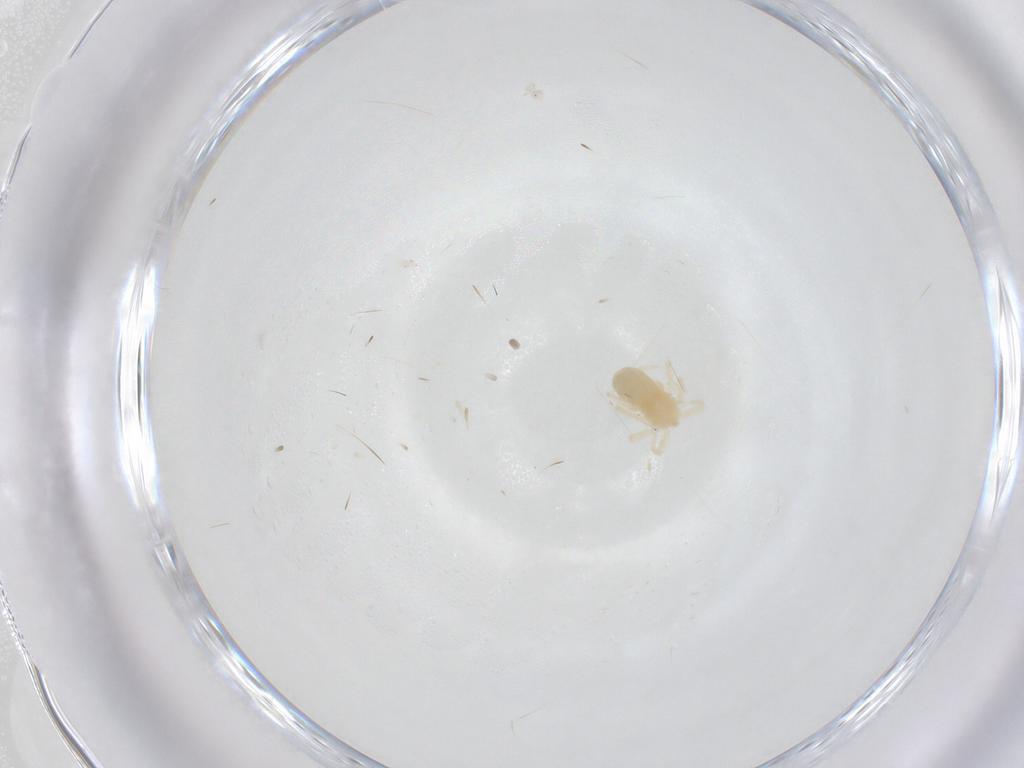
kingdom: Animalia
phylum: Arthropoda
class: Arachnida
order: Trombidiformes
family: Anystidae
